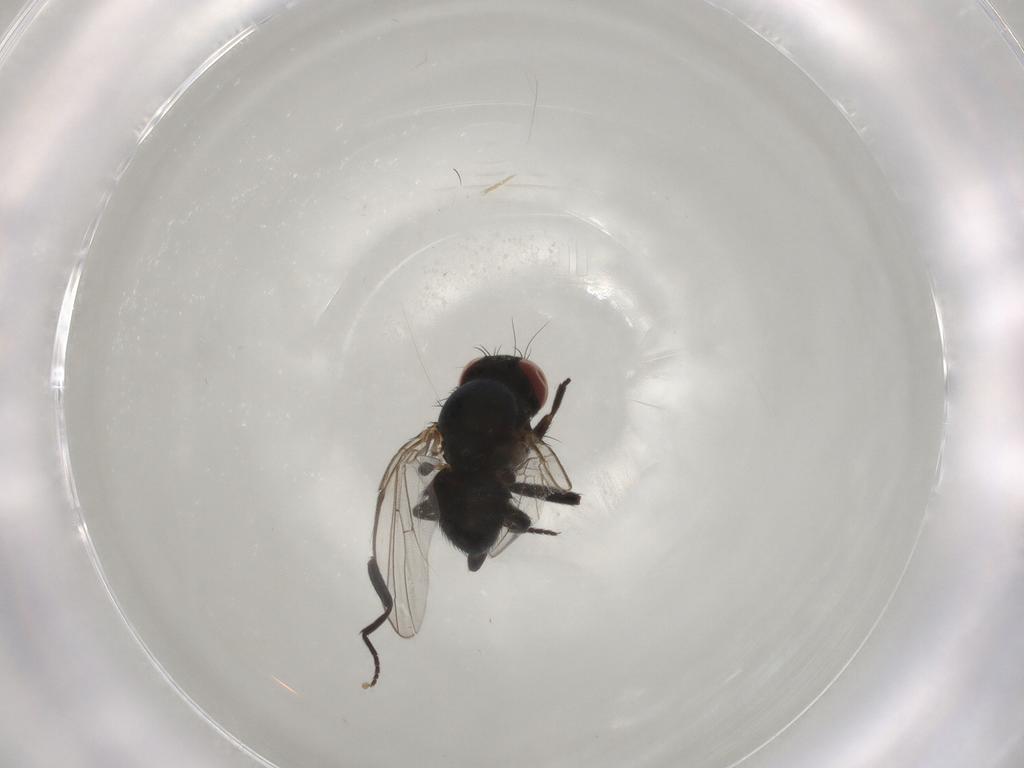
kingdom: Animalia
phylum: Arthropoda
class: Insecta
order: Diptera
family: Agromyzidae
